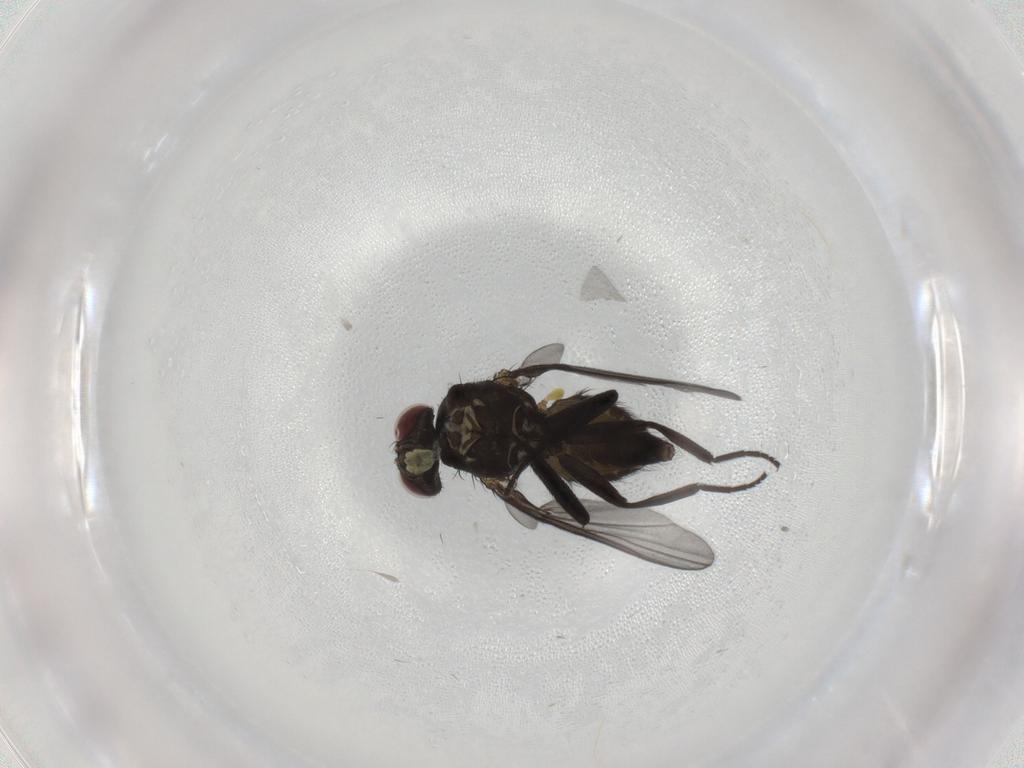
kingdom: Animalia
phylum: Arthropoda
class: Insecta
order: Diptera
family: Agromyzidae
